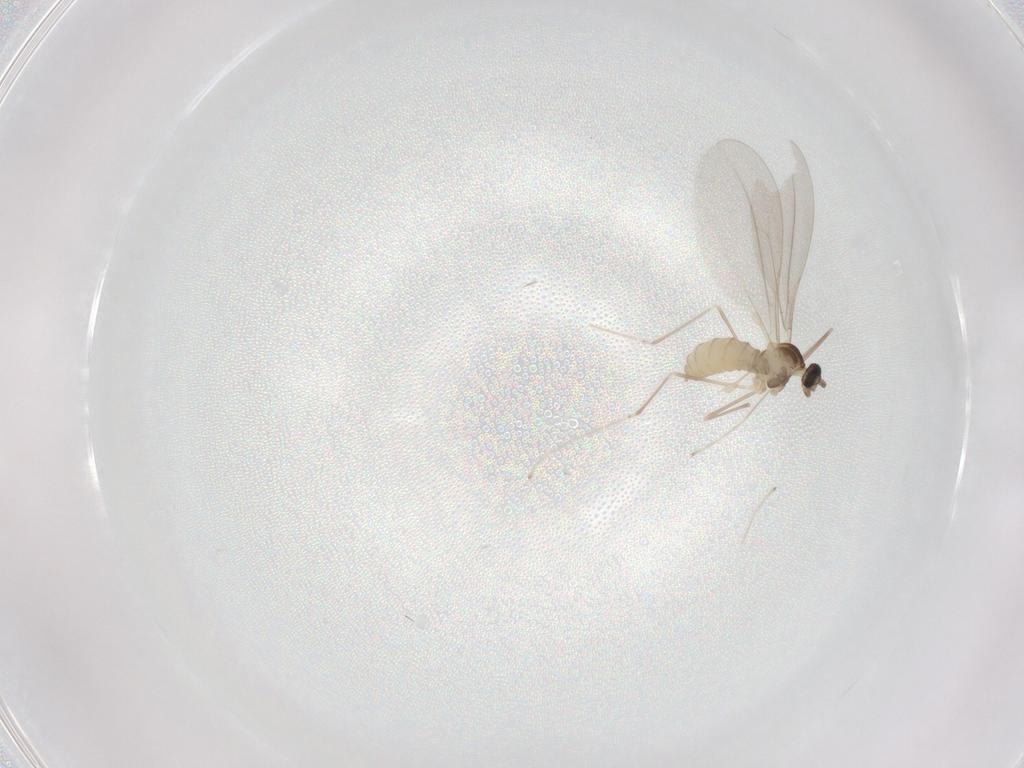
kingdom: Animalia
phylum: Arthropoda
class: Insecta
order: Diptera
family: Cecidomyiidae
